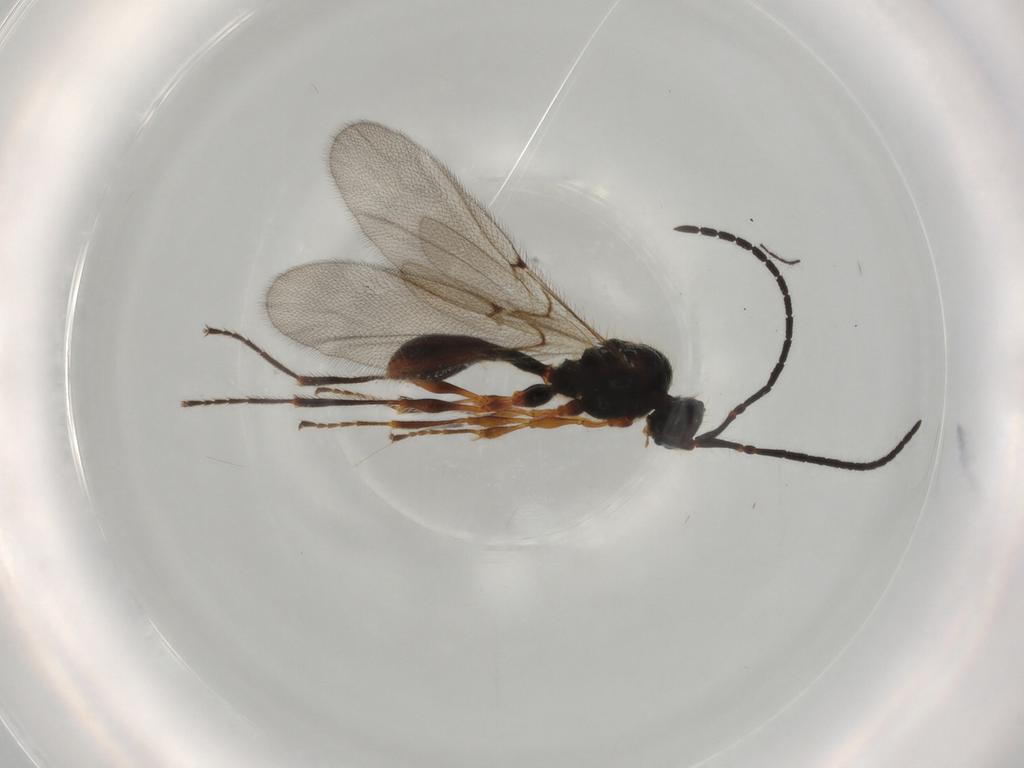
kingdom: Animalia
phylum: Arthropoda
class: Insecta
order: Hymenoptera
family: Diapriidae
